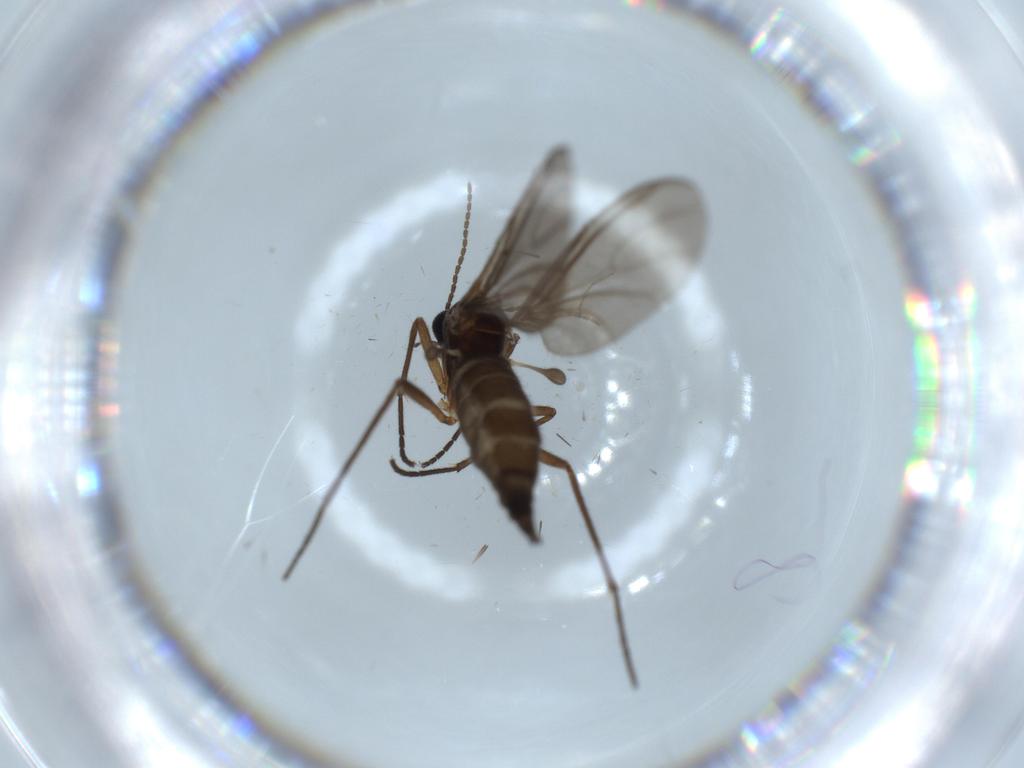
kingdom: Animalia
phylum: Arthropoda
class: Insecta
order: Diptera
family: Sciaridae
